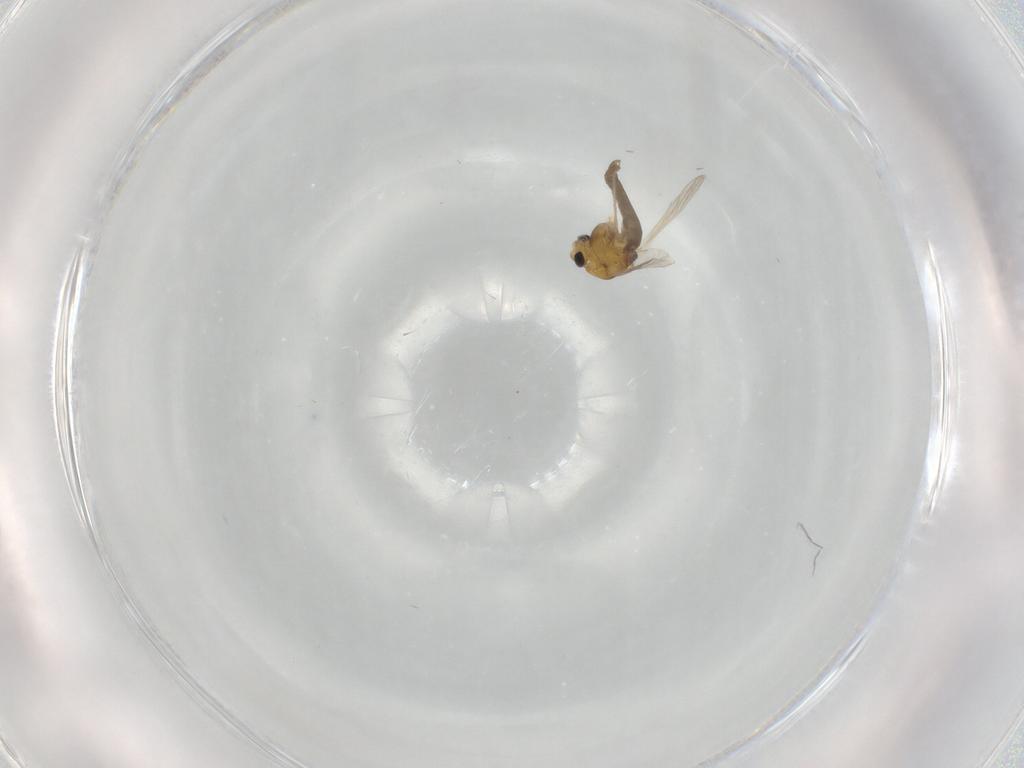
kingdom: Animalia
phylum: Arthropoda
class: Insecta
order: Diptera
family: Chironomidae
